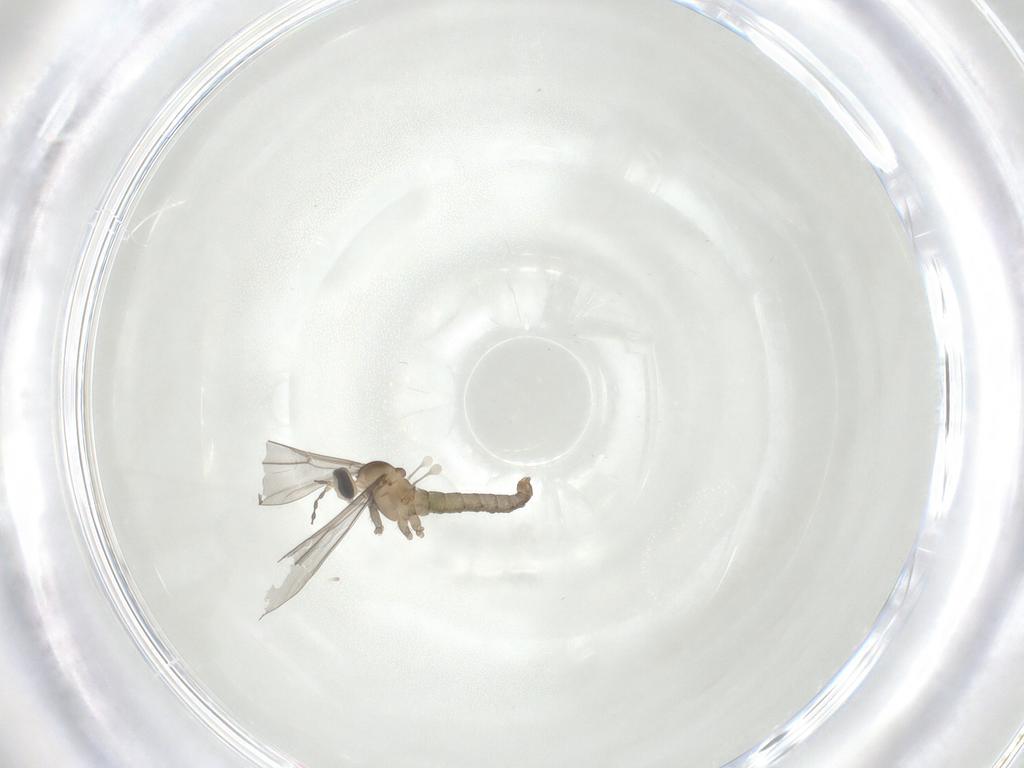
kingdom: Animalia
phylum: Arthropoda
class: Insecta
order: Diptera
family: Cecidomyiidae
